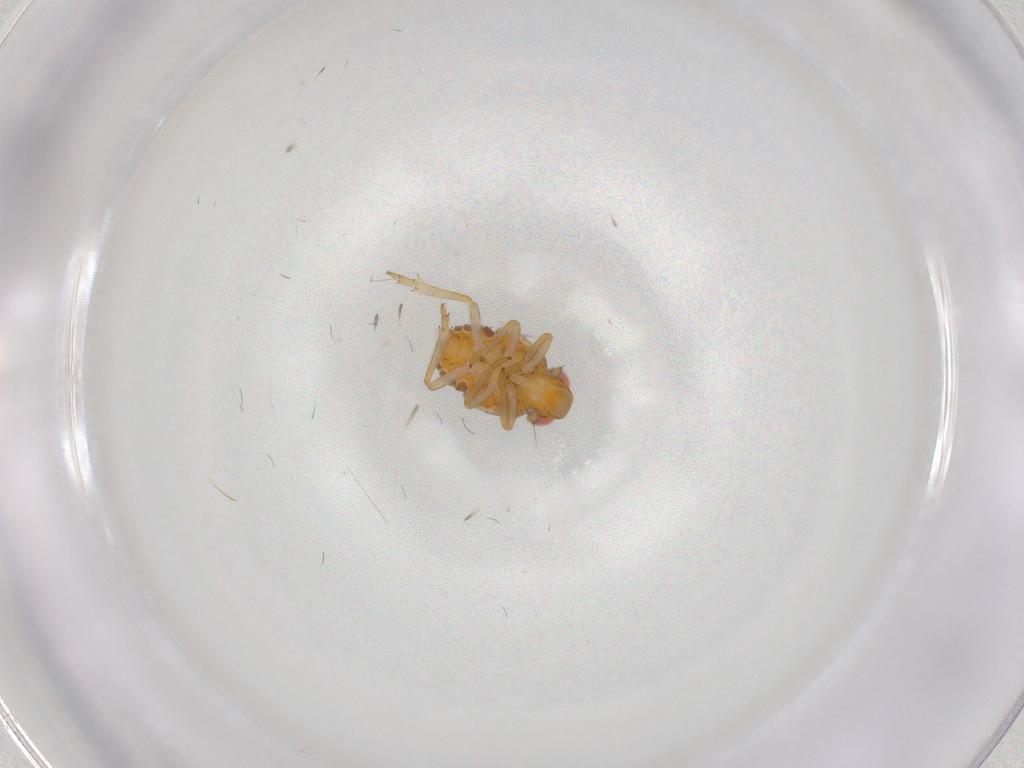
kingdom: Animalia
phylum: Arthropoda
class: Insecta
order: Hemiptera
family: Issidae
